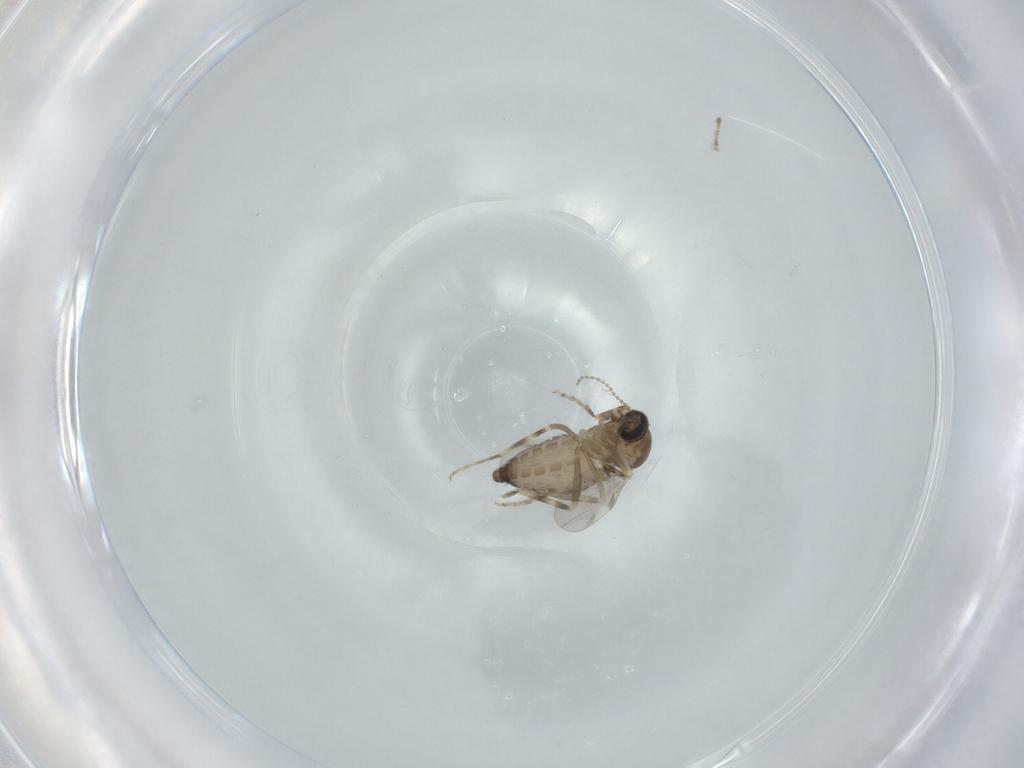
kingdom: Animalia
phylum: Arthropoda
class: Insecta
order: Diptera
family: Ceratopogonidae
